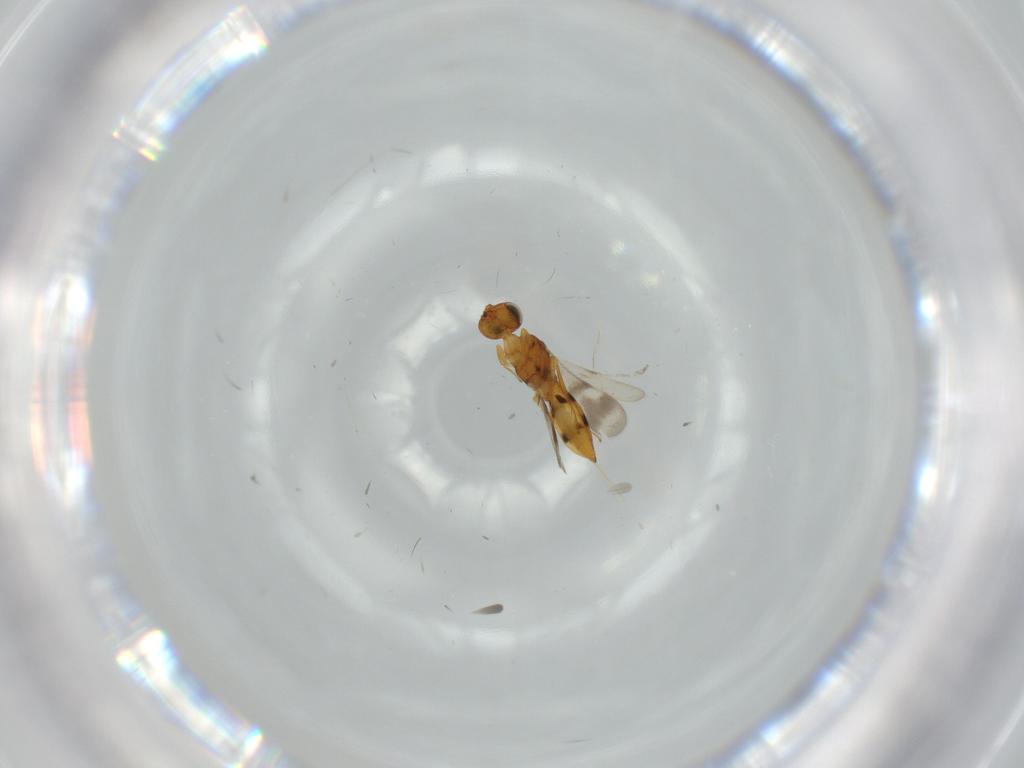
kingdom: Animalia
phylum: Arthropoda
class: Insecta
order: Hymenoptera
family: Scelionidae
